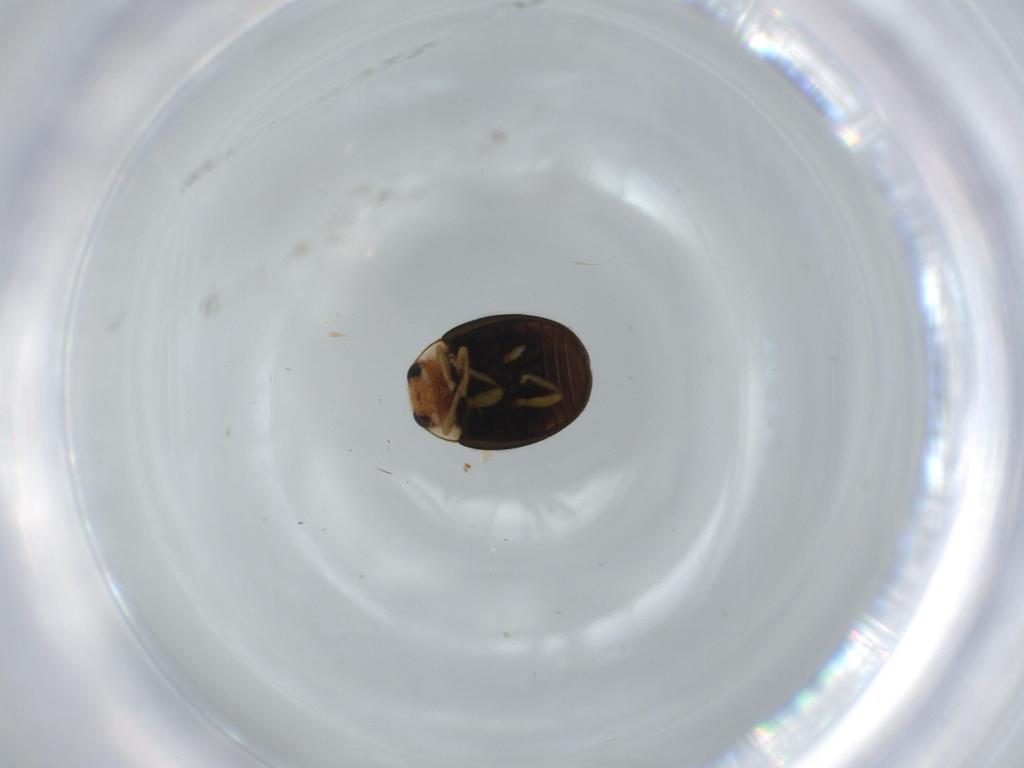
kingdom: Animalia
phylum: Arthropoda
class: Insecta
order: Coleoptera
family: Coccinellidae
